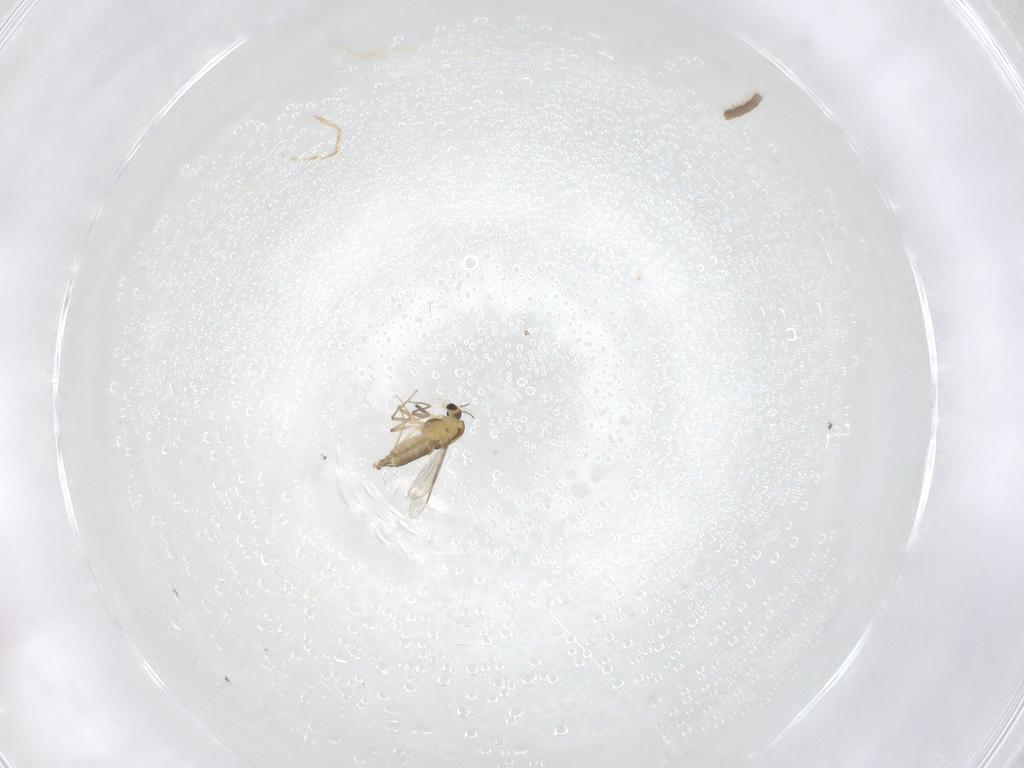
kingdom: Animalia
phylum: Arthropoda
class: Insecta
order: Diptera
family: Chironomidae
